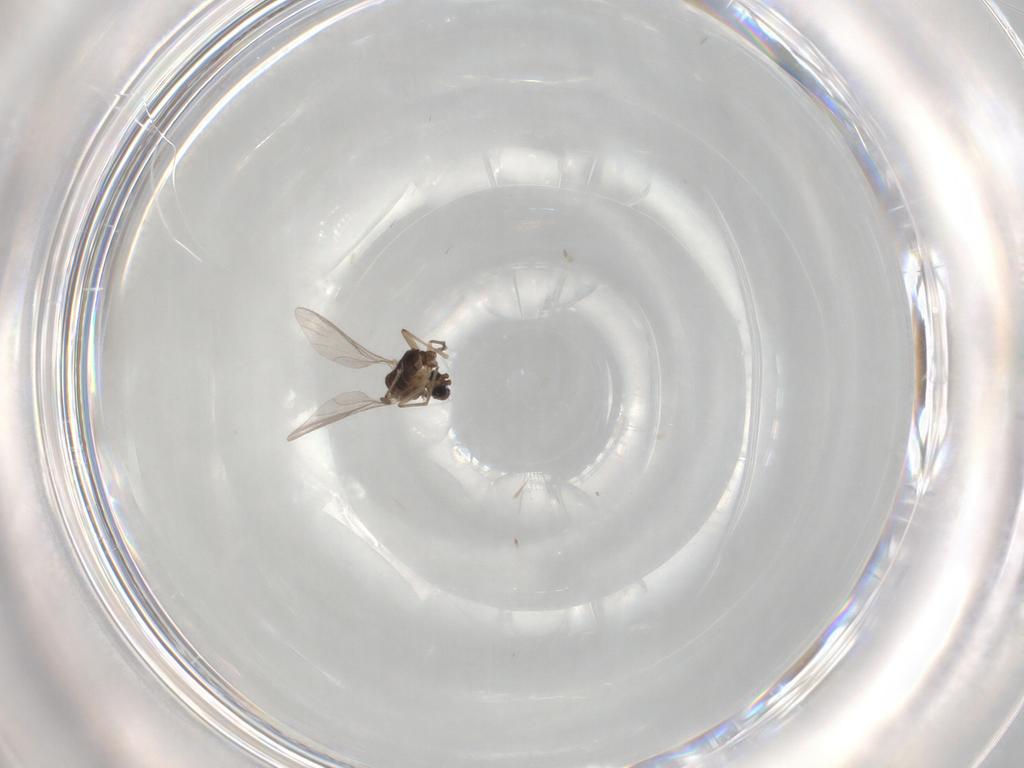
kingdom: Animalia
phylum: Arthropoda
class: Insecta
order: Diptera
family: Sciaridae
